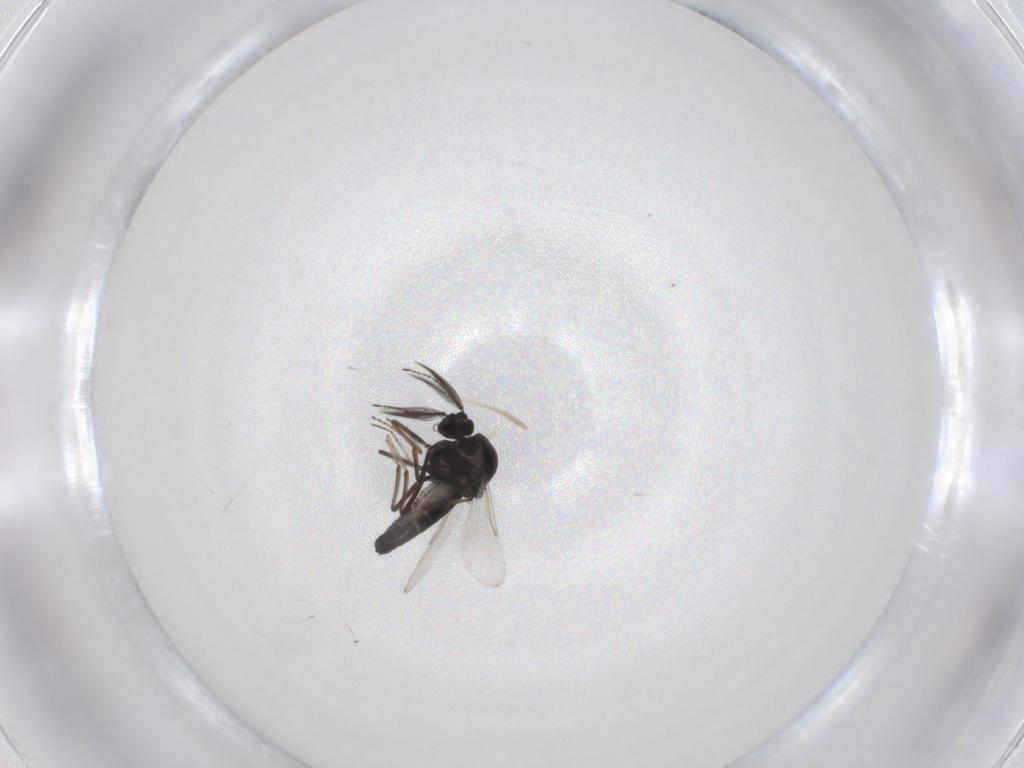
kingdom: Animalia
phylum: Arthropoda
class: Insecta
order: Diptera
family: Ceratopogonidae
